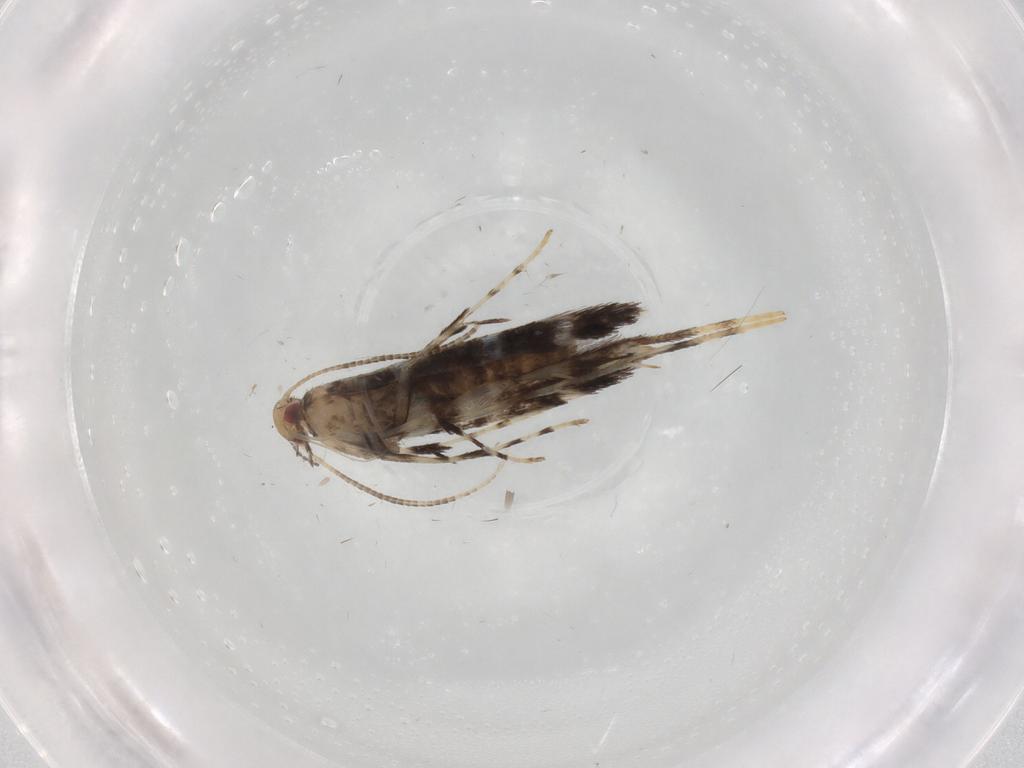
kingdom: Animalia
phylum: Arthropoda
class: Insecta
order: Lepidoptera
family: Gracillariidae
